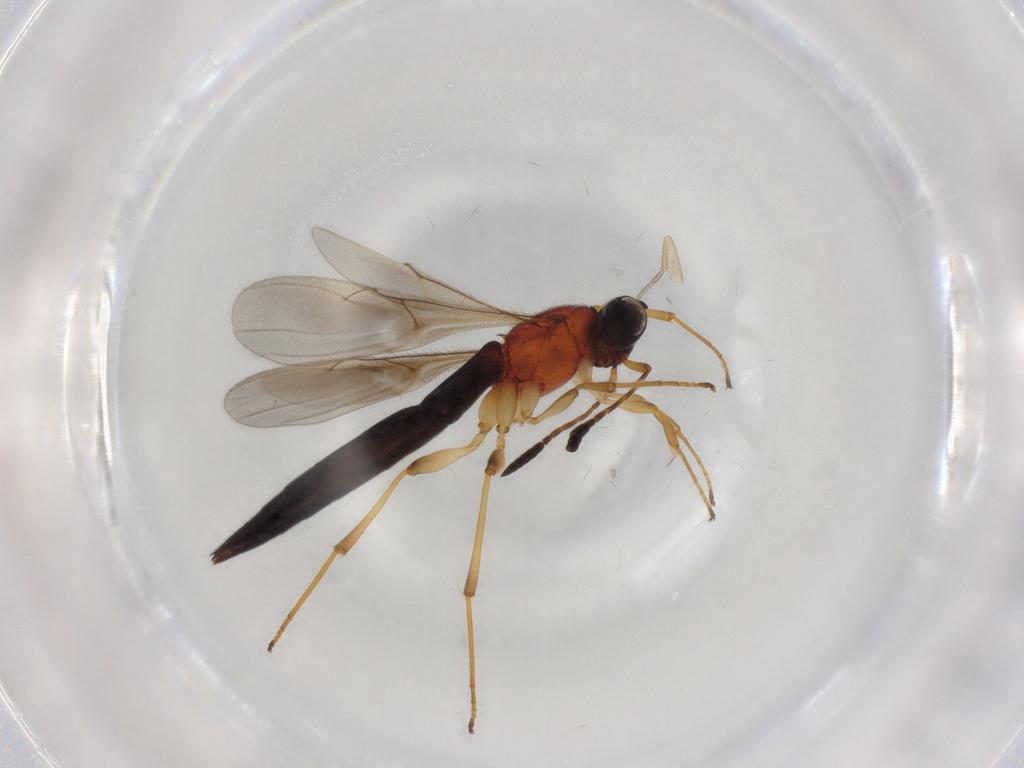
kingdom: Animalia
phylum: Arthropoda
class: Insecta
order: Hymenoptera
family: Scelionidae
